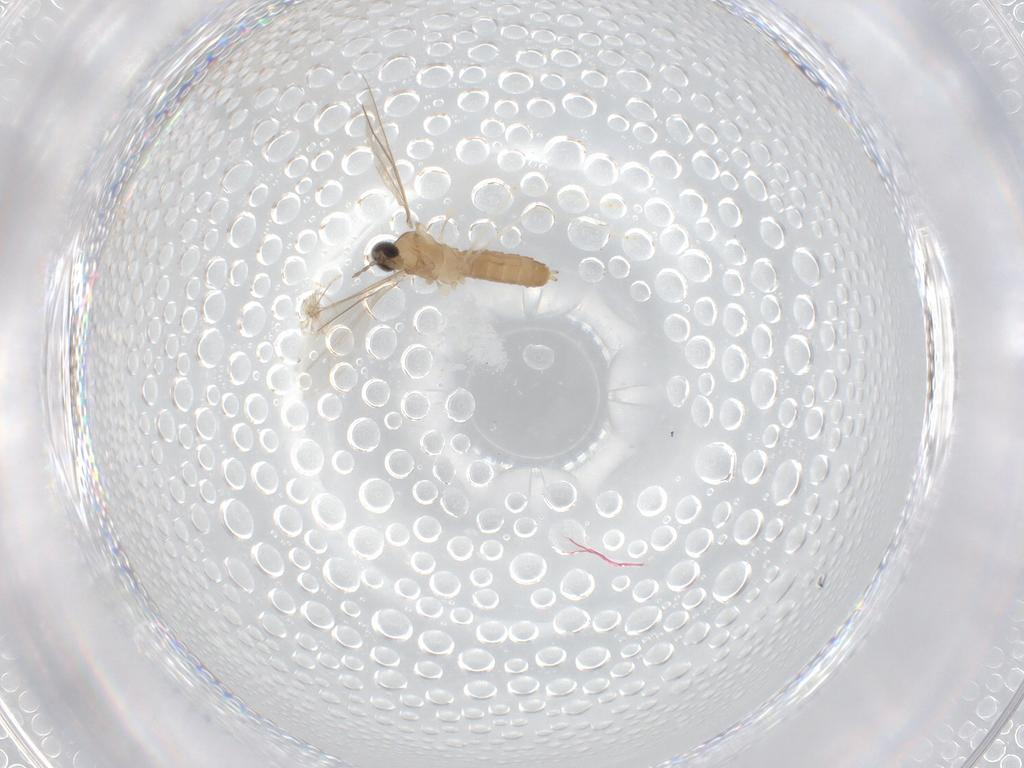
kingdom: Animalia
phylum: Arthropoda
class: Insecta
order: Diptera
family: Cecidomyiidae
